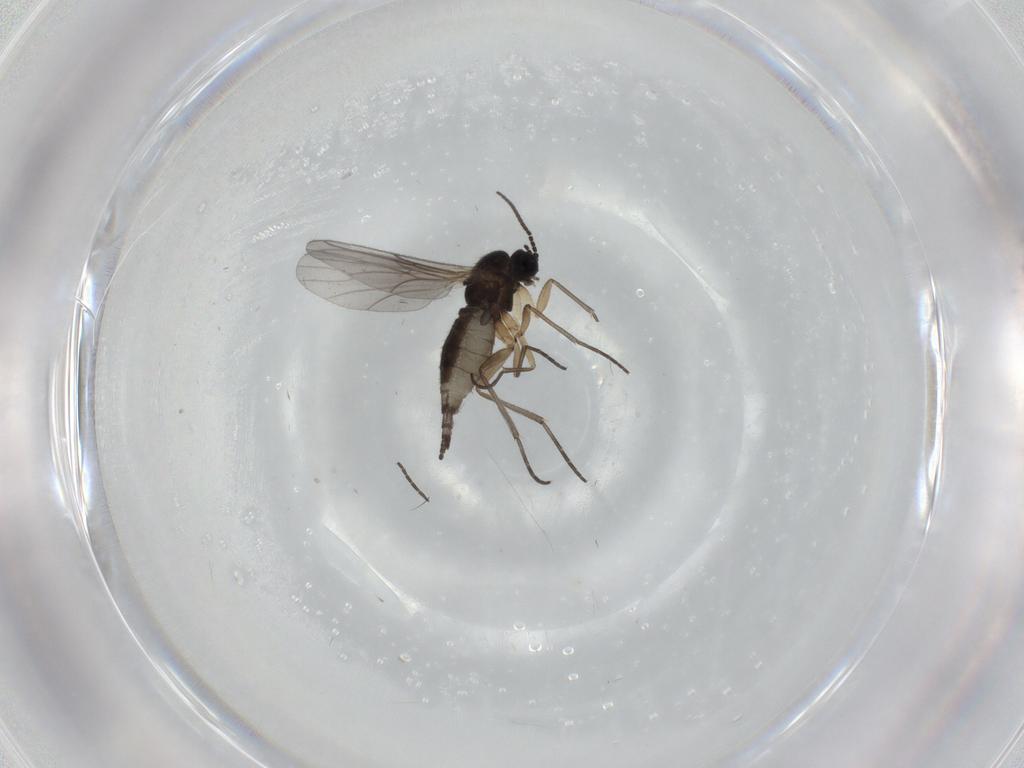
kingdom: Animalia
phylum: Arthropoda
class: Insecta
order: Diptera
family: Sciaridae
